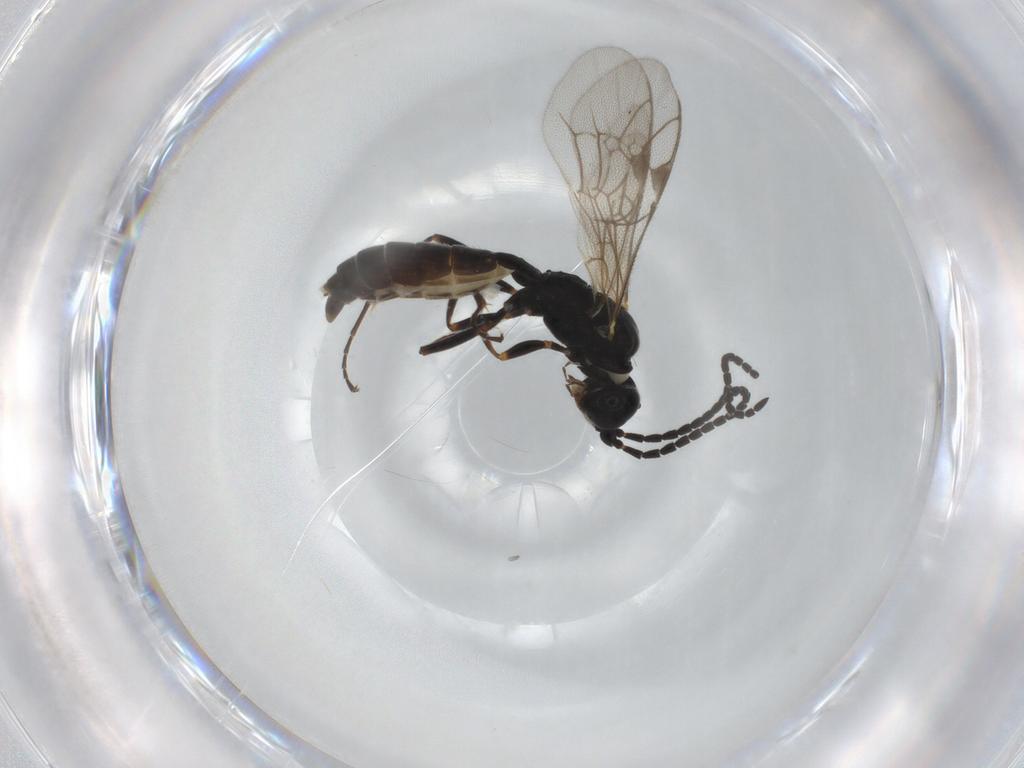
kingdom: Animalia
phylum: Arthropoda
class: Insecta
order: Hymenoptera
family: Ichneumonidae
